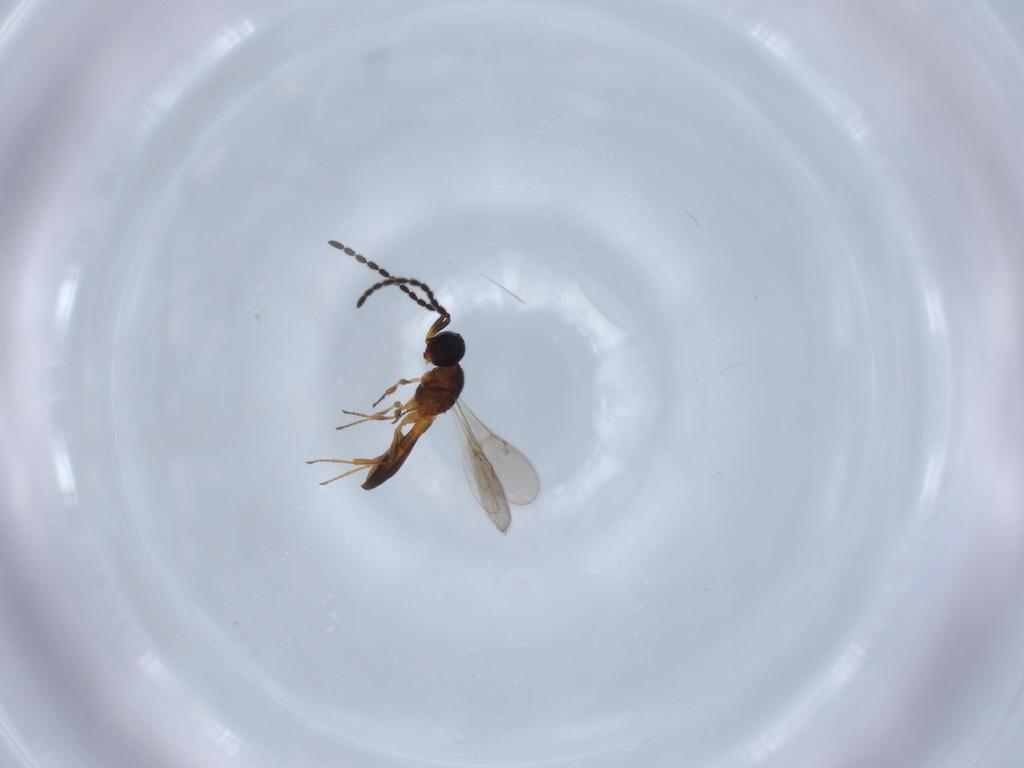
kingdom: Animalia
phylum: Arthropoda
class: Insecta
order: Hymenoptera
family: Scelionidae
